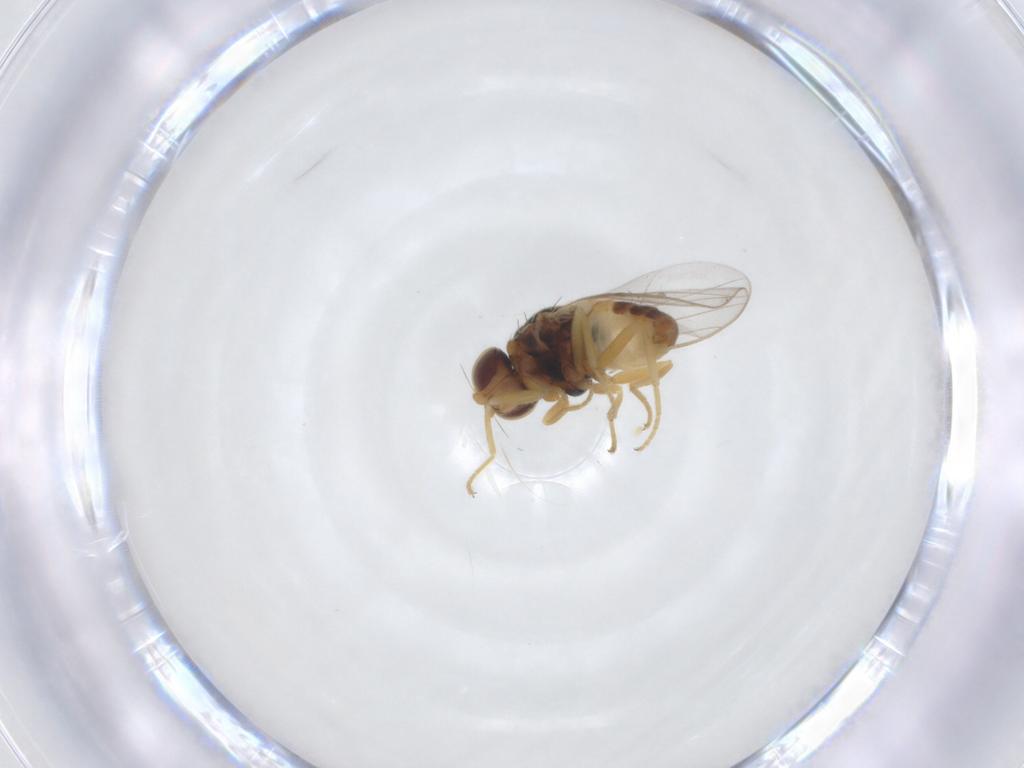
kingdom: Animalia
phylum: Arthropoda
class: Insecta
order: Diptera
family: Chloropidae
